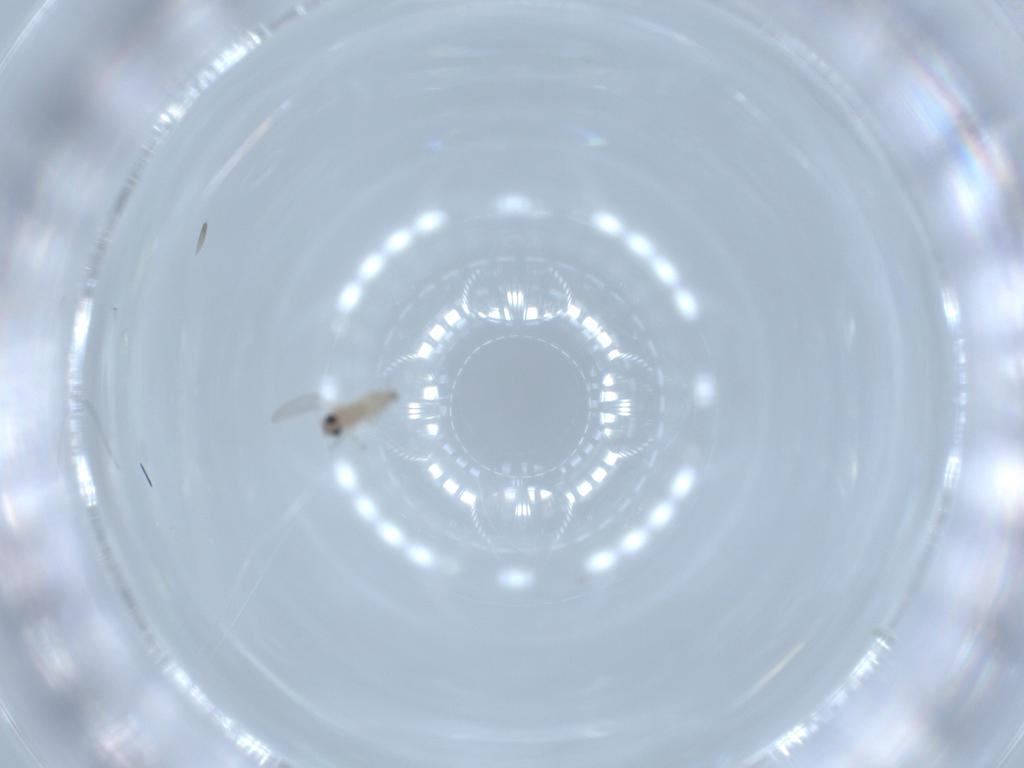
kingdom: Animalia
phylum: Arthropoda
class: Insecta
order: Diptera
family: Cecidomyiidae
